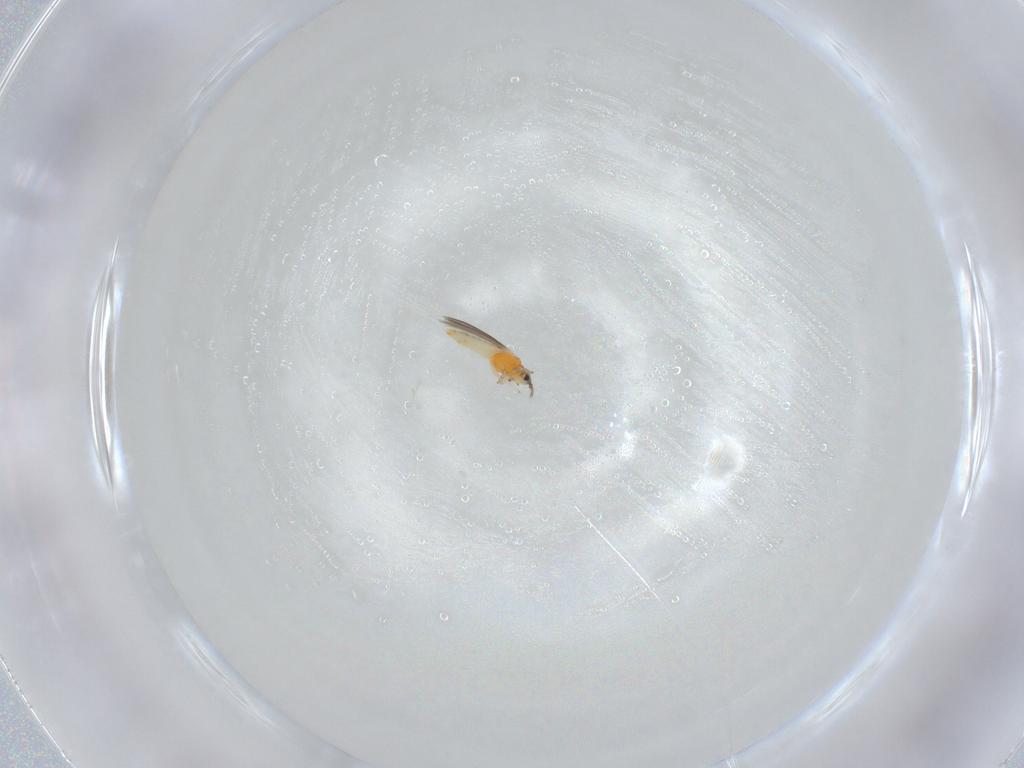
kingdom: Animalia
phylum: Arthropoda
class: Insecta
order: Thysanoptera
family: Thripidae
